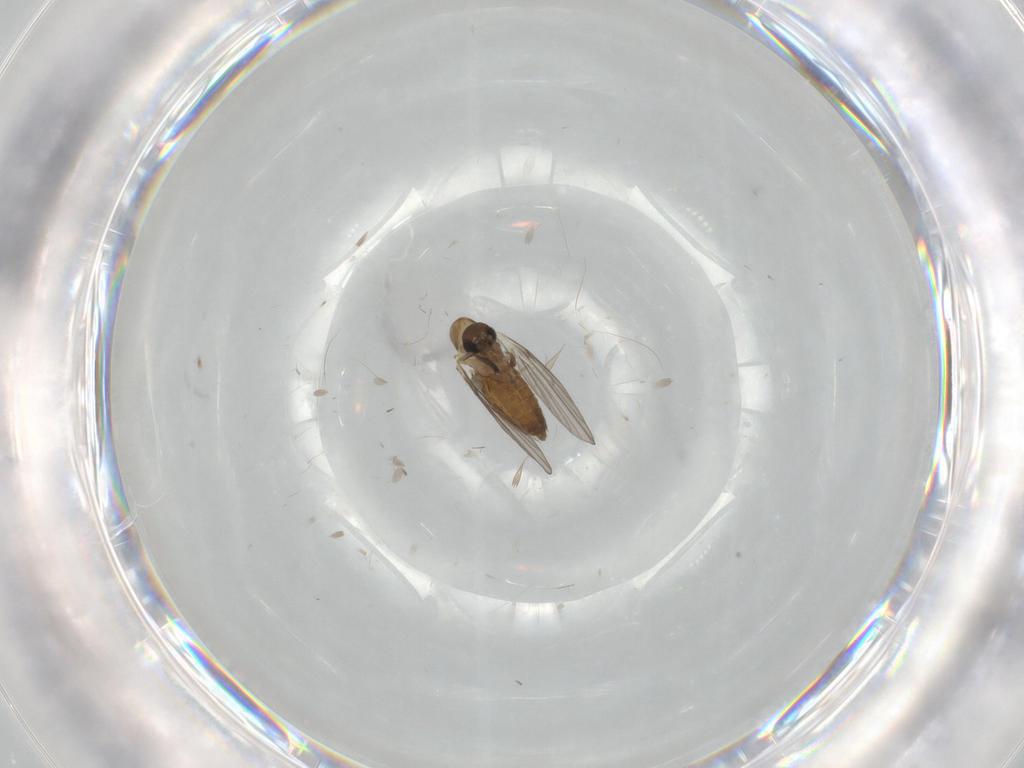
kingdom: Animalia
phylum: Arthropoda
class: Insecta
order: Diptera
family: Psychodidae
